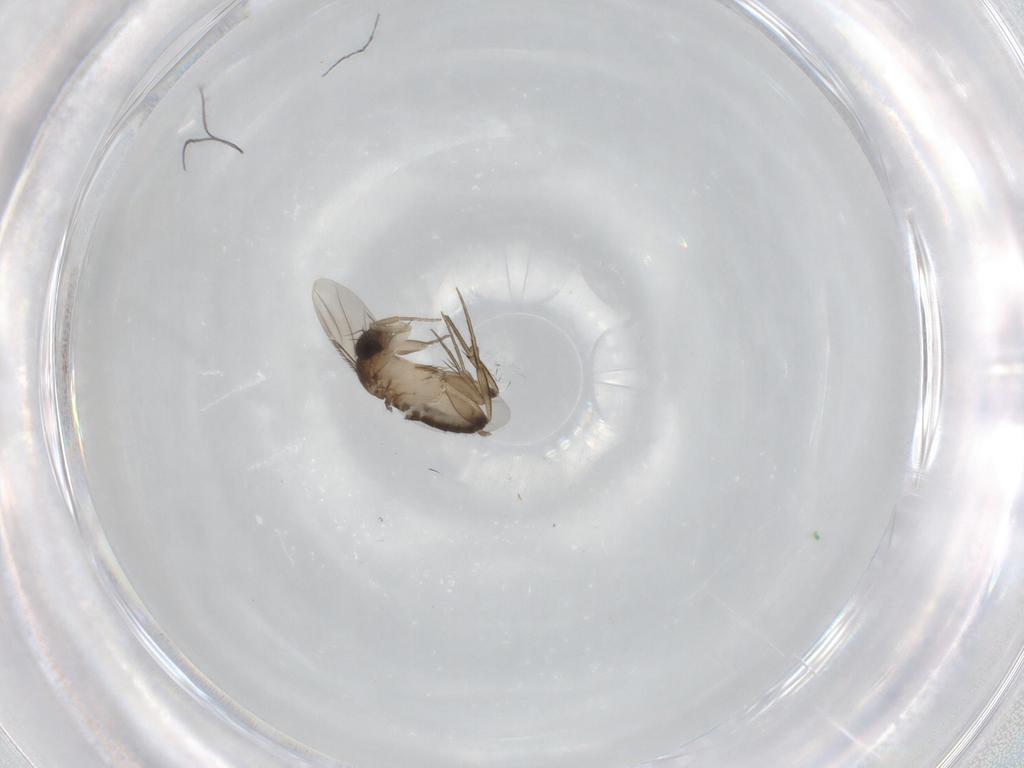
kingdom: Animalia
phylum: Arthropoda
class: Insecta
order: Diptera
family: Phoridae
